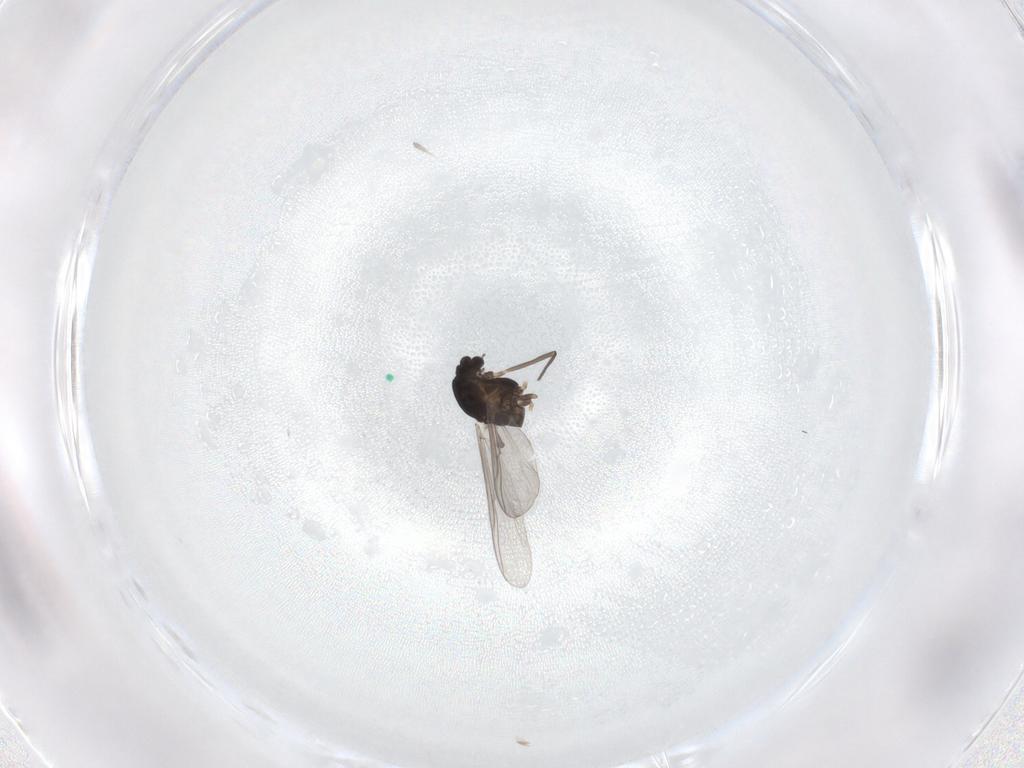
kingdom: Animalia
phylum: Arthropoda
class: Insecta
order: Diptera
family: Chironomidae
